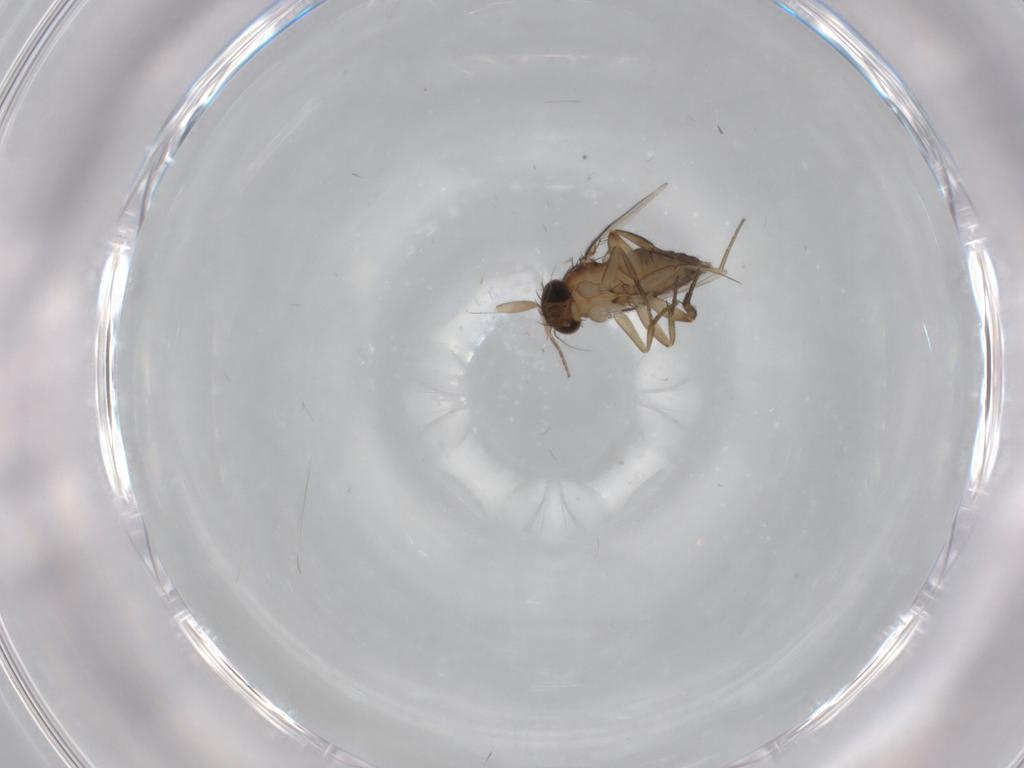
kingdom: Animalia
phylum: Arthropoda
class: Insecta
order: Diptera
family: Phoridae
